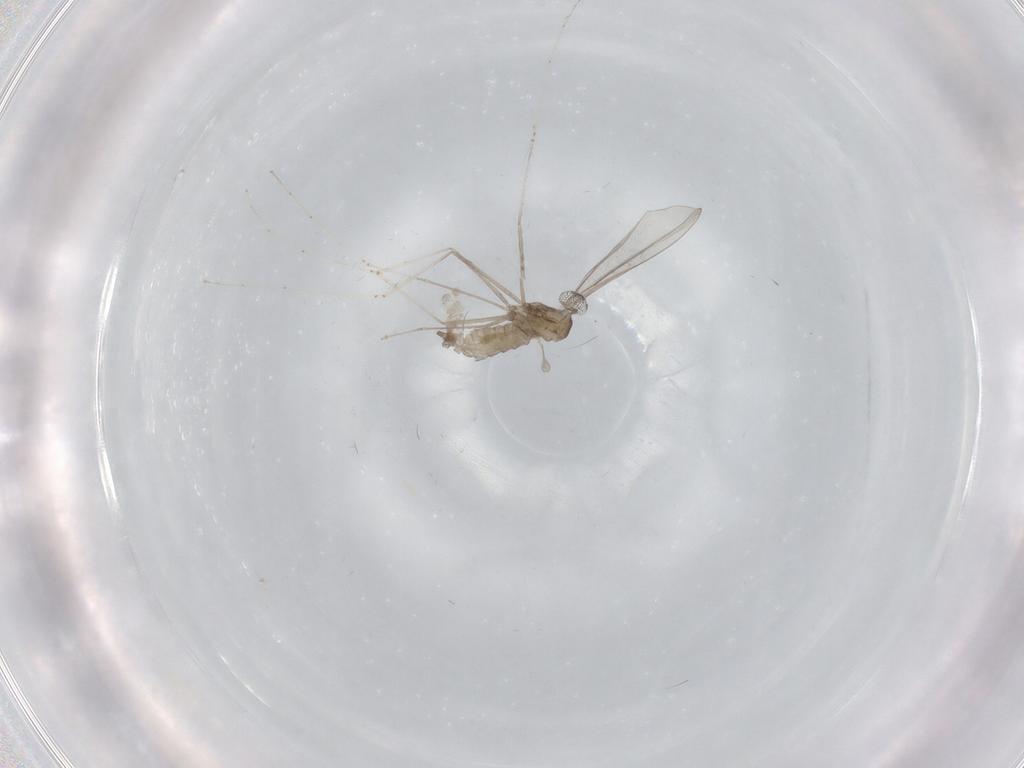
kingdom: Animalia
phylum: Arthropoda
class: Insecta
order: Diptera
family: Cecidomyiidae
